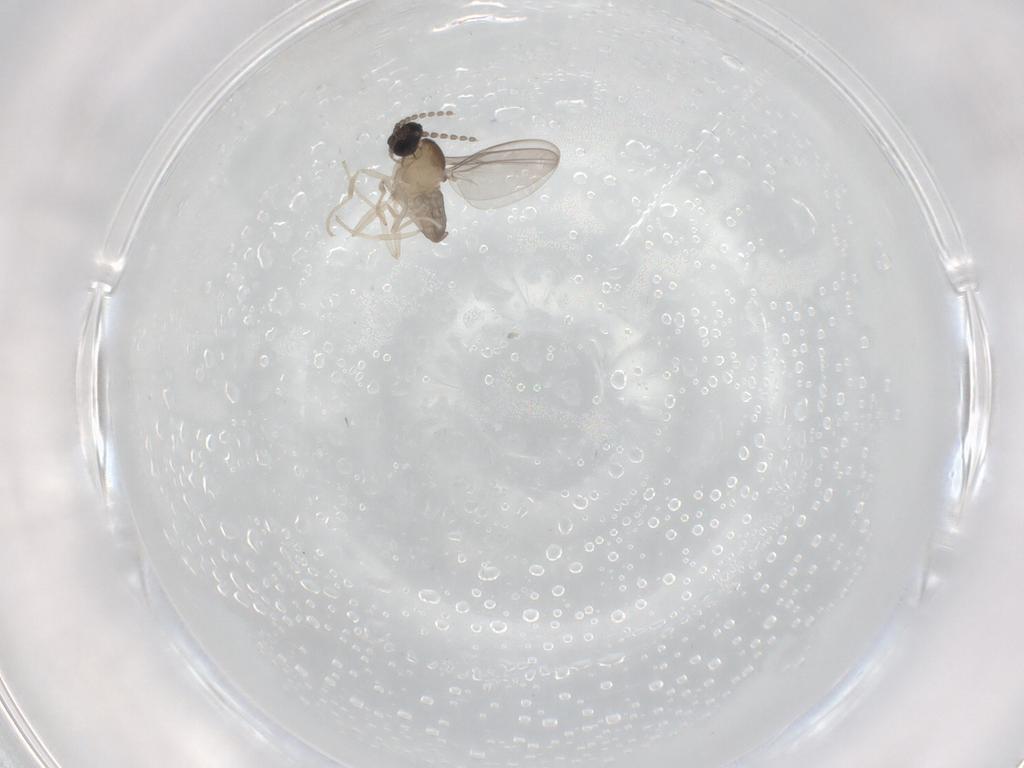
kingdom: Animalia
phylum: Arthropoda
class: Insecta
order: Diptera
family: Cecidomyiidae
